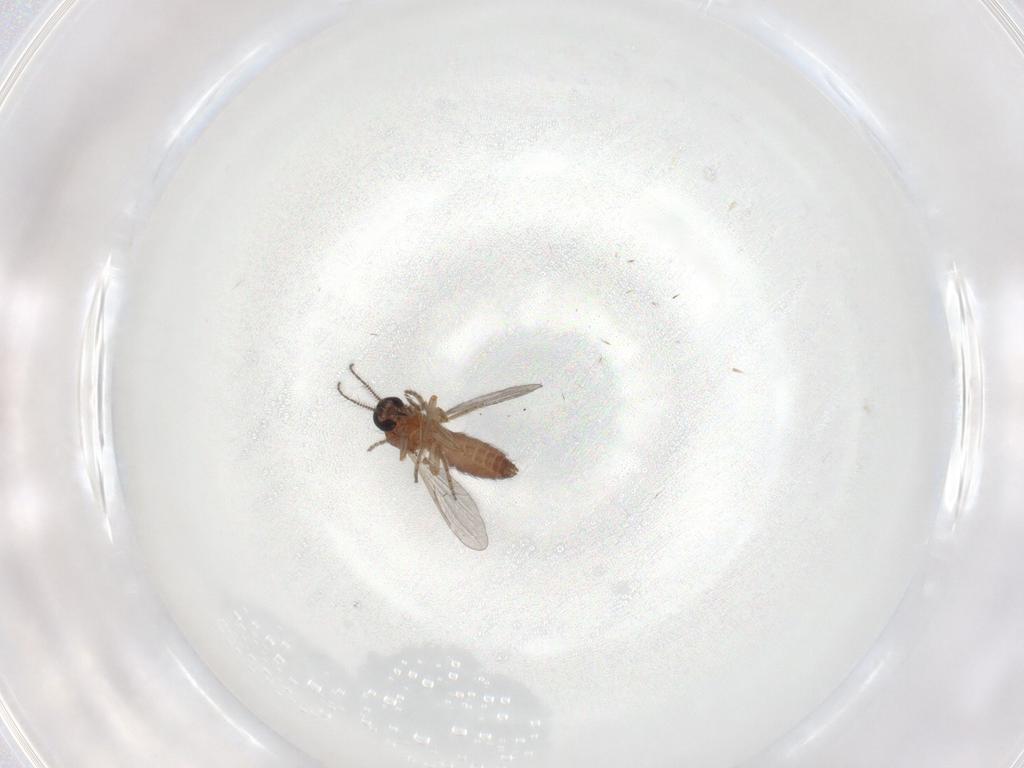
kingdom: Animalia
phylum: Arthropoda
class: Insecta
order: Diptera
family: Ceratopogonidae
